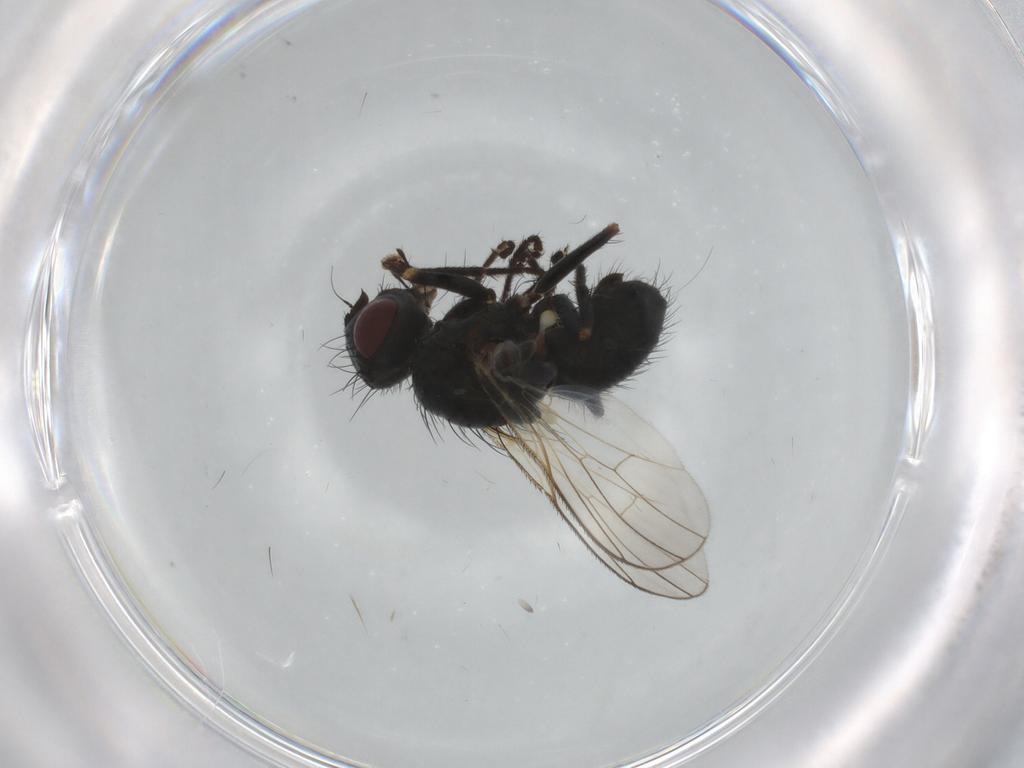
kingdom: Animalia
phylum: Arthropoda
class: Insecta
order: Diptera
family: Muscidae
